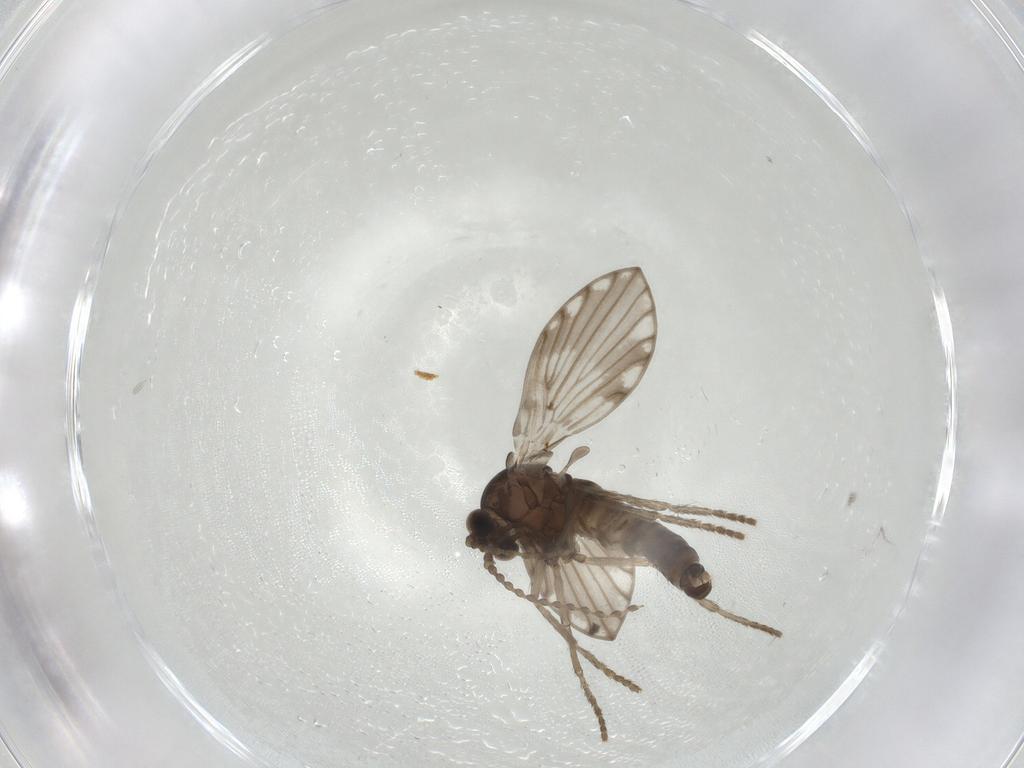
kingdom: Animalia
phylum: Arthropoda
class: Insecta
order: Diptera
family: Psychodidae
